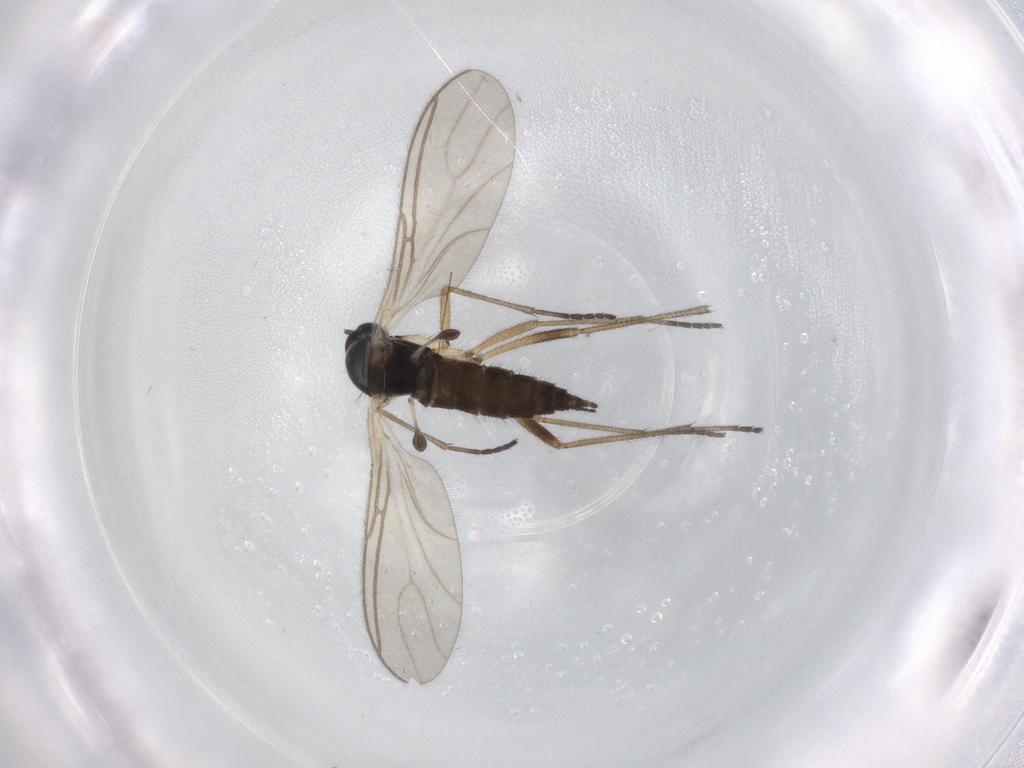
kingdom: Animalia
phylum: Arthropoda
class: Insecta
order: Diptera
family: Sciaridae
